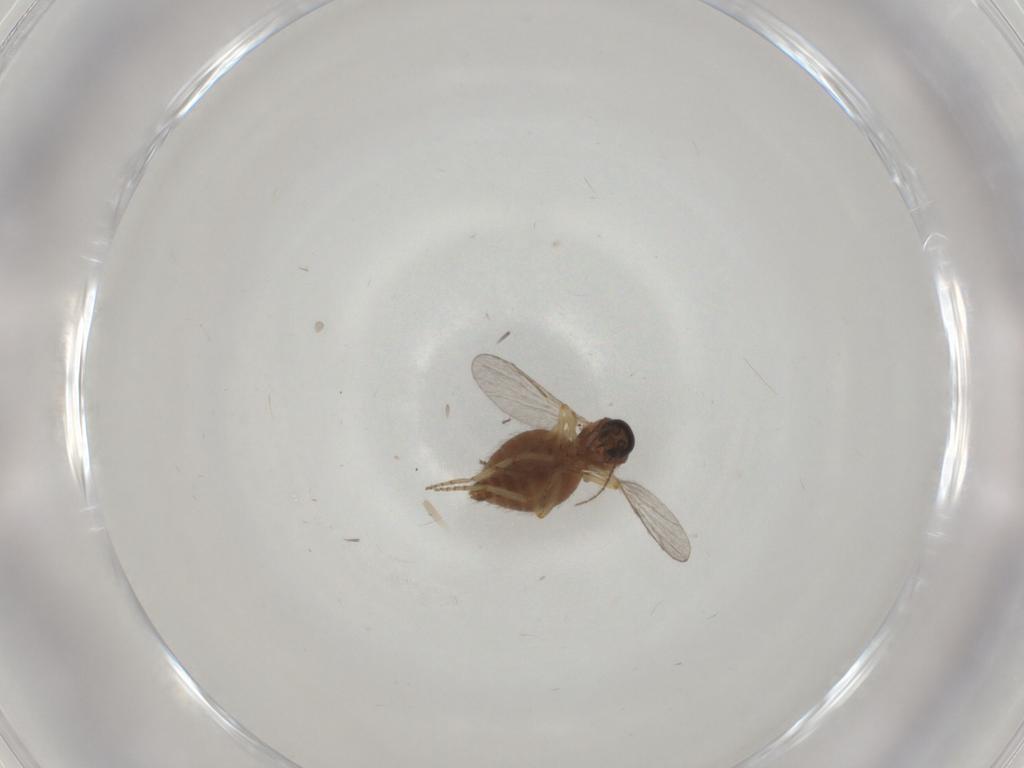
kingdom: Animalia
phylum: Arthropoda
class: Insecta
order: Diptera
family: Ceratopogonidae
